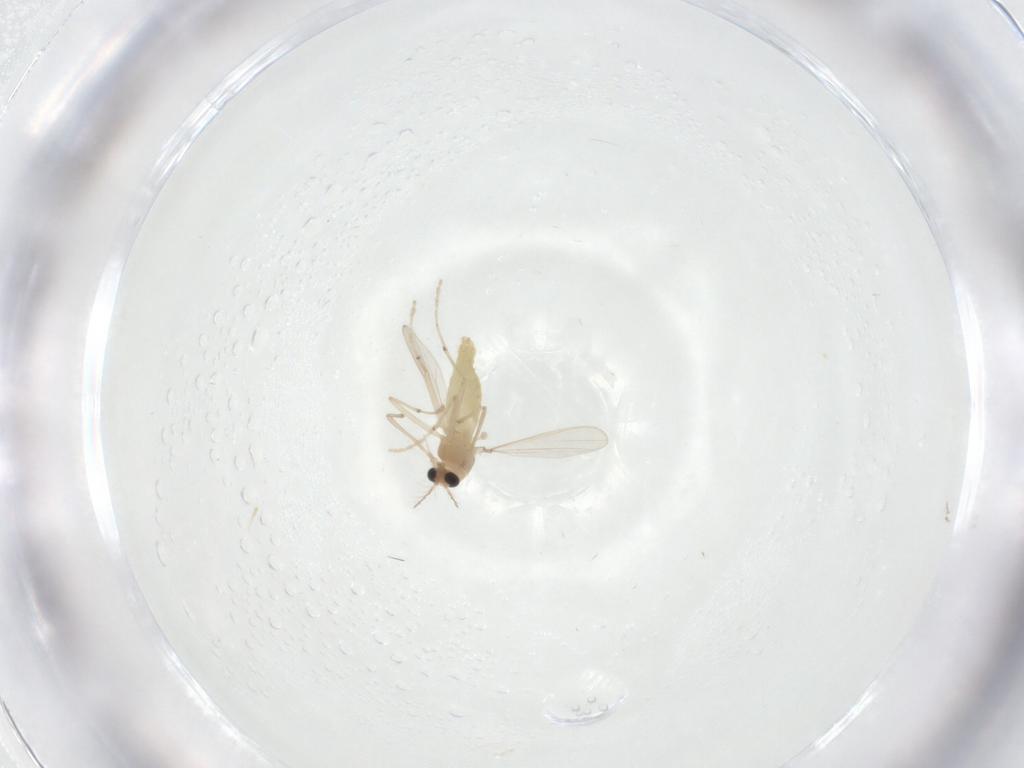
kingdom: Animalia
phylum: Arthropoda
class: Insecta
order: Diptera
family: Chironomidae
